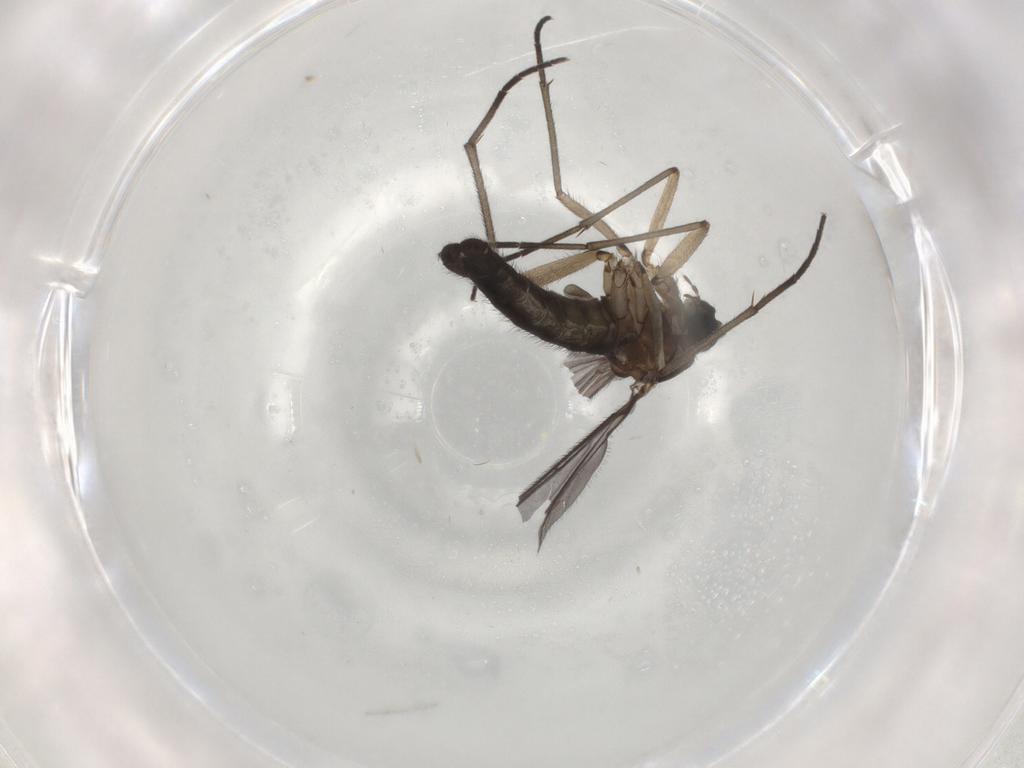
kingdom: Animalia
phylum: Arthropoda
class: Insecta
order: Diptera
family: Sciaridae
